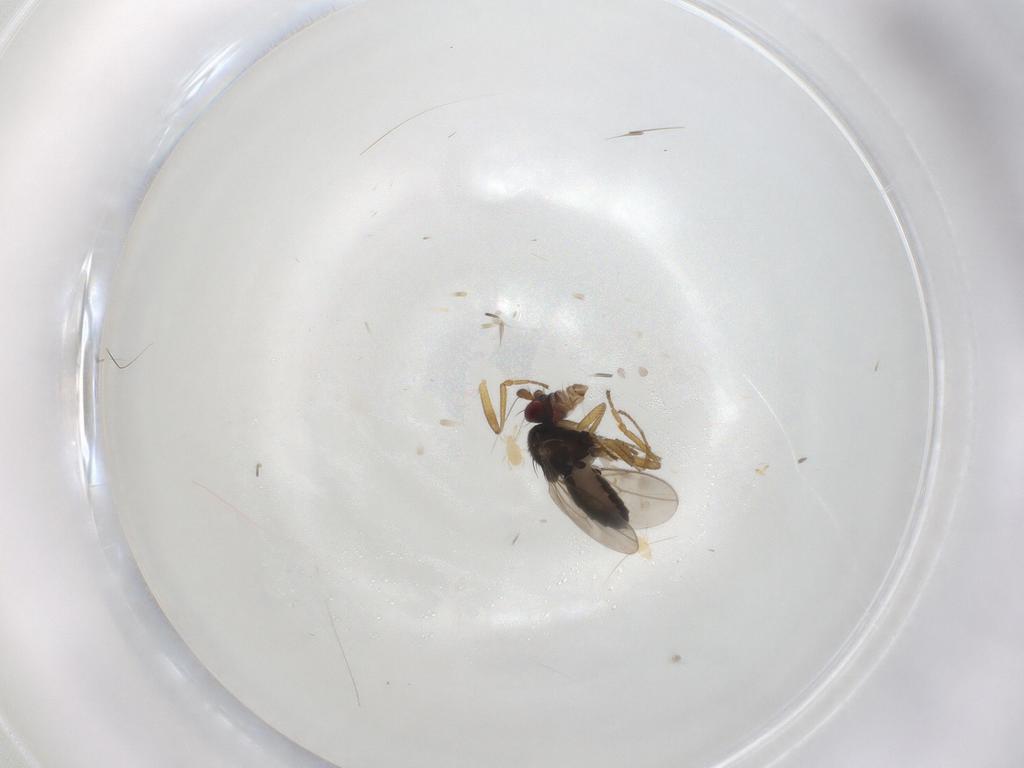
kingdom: Animalia
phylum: Arthropoda
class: Insecta
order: Diptera
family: Sphaeroceridae
